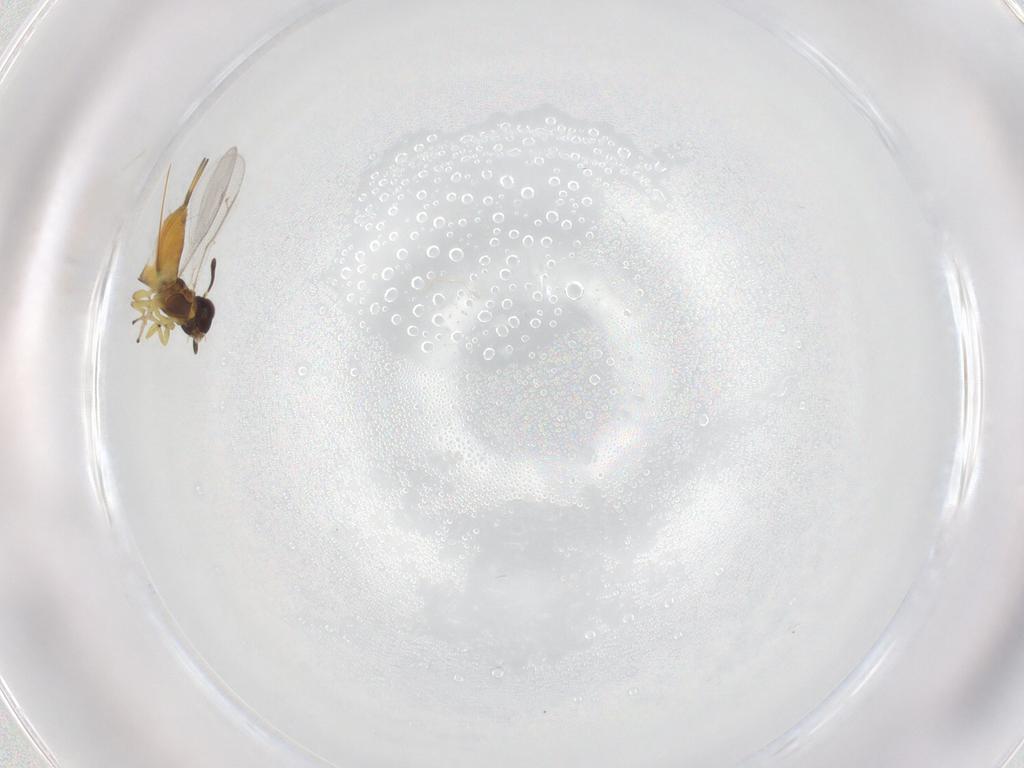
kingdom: Animalia
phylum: Arthropoda
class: Insecta
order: Hymenoptera
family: Eupelmidae
